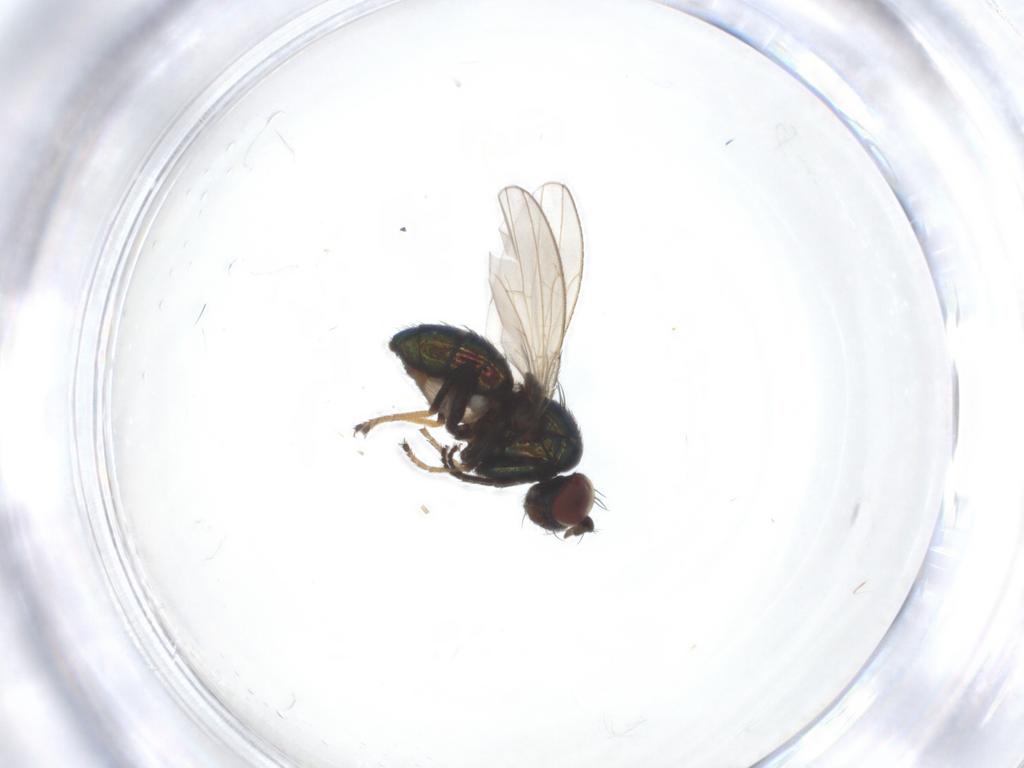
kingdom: Animalia
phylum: Arthropoda
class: Insecta
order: Diptera
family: Ephydridae
